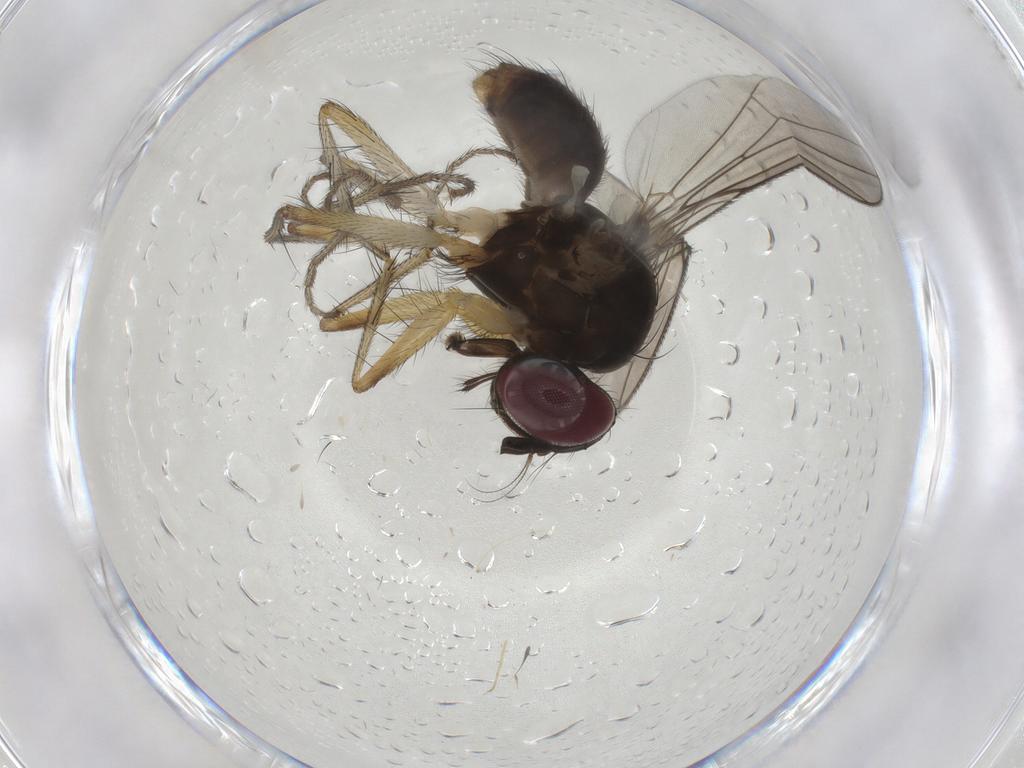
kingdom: Animalia
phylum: Arthropoda
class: Insecta
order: Diptera
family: Anthomyiidae
